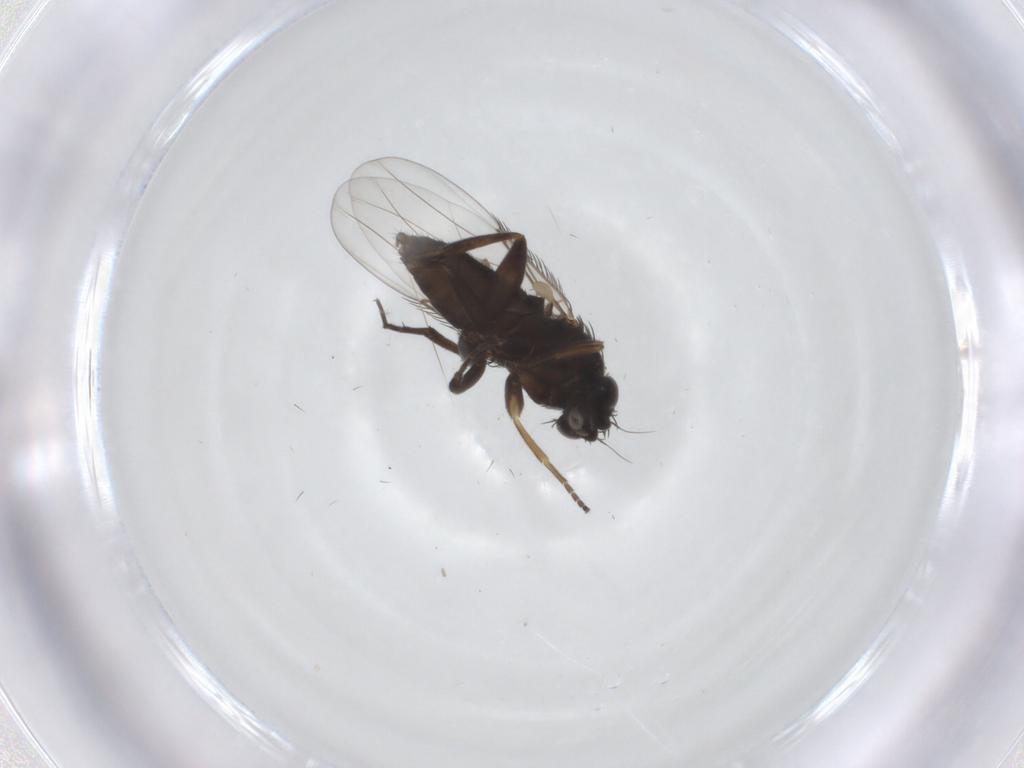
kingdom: Animalia
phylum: Arthropoda
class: Insecta
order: Diptera
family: Phoridae
